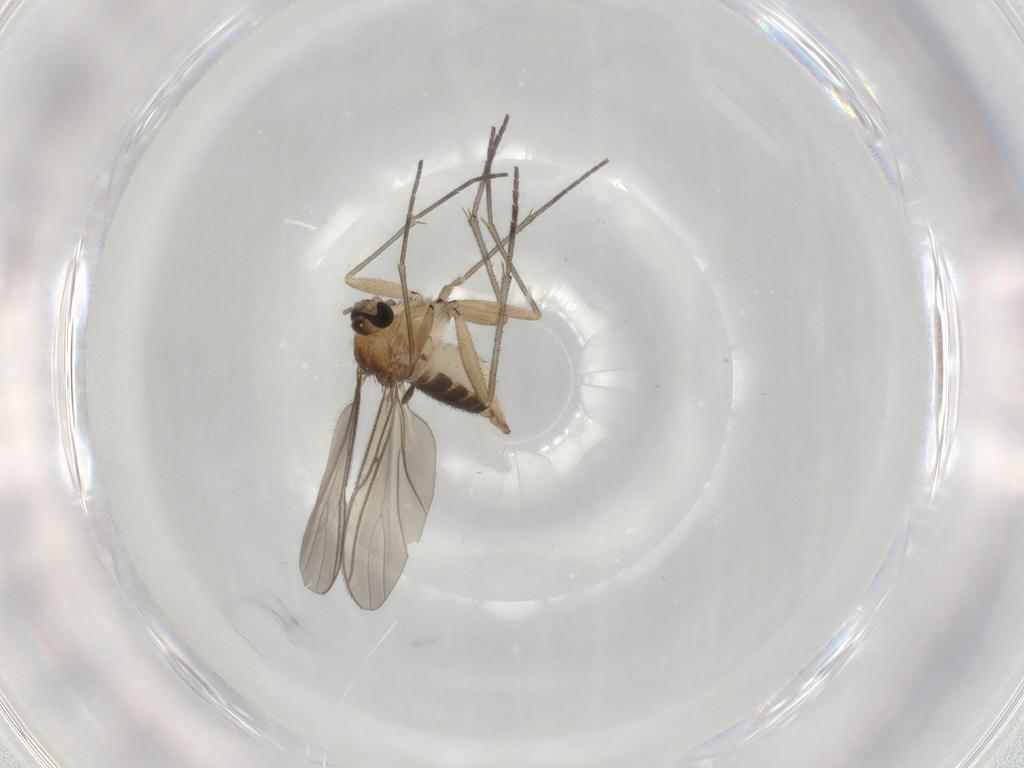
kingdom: Animalia
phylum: Arthropoda
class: Insecta
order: Diptera
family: Sciaridae
